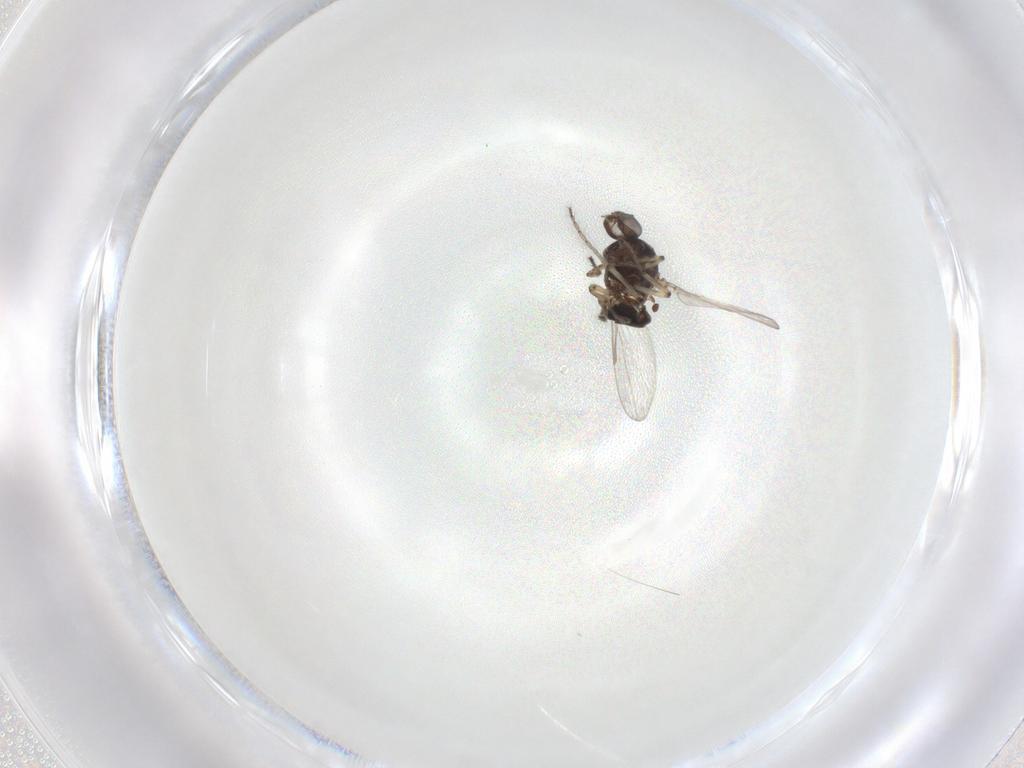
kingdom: Animalia
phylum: Arthropoda
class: Insecta
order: Diptera
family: Ceratopogonidae
